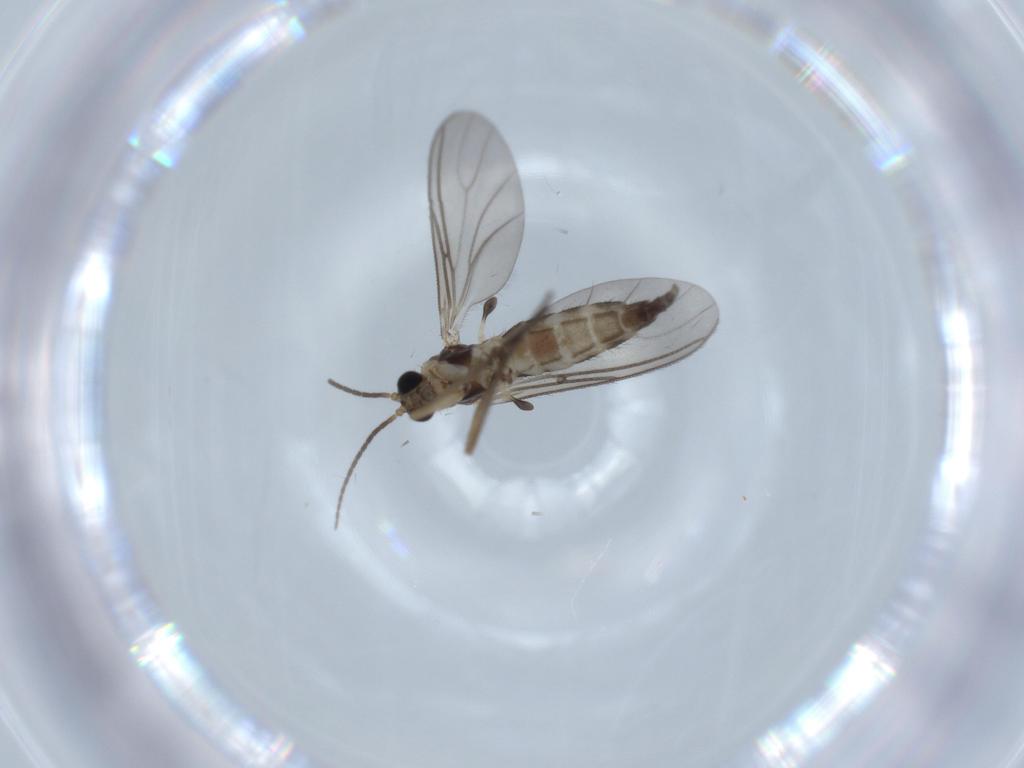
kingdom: Animalia
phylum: Arthropoda
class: Insecta
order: Diptera
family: Sciaridae
